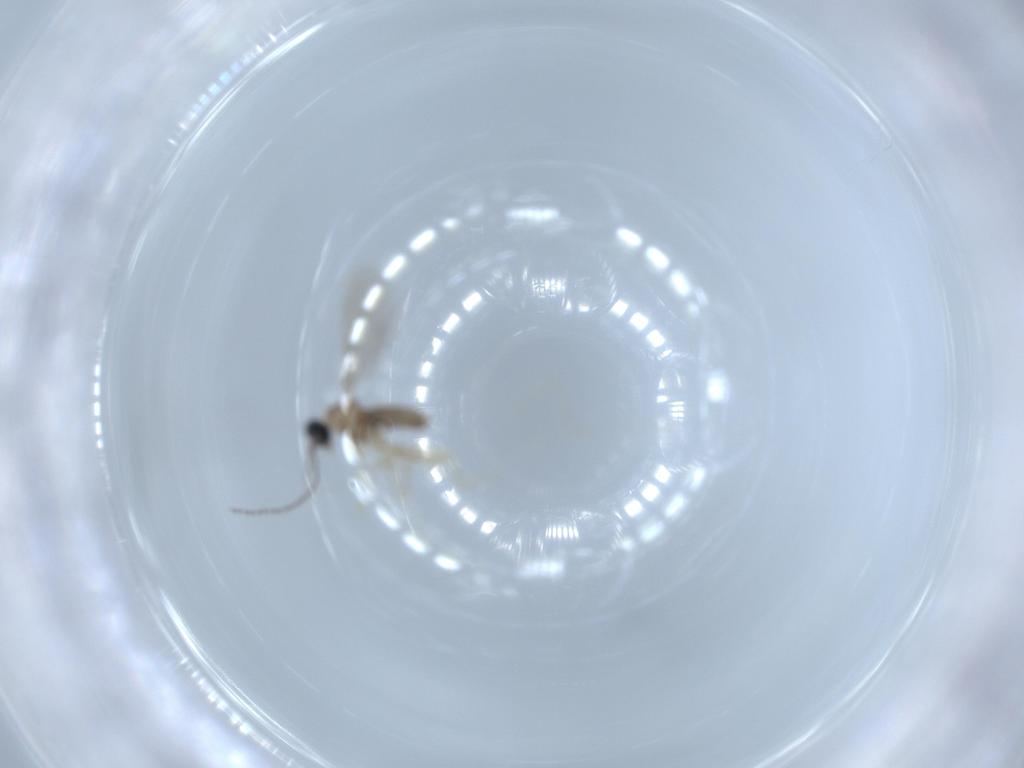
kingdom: Animalia
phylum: Arthropoda
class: Insecta
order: Diptera
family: Cecidomyiidae
